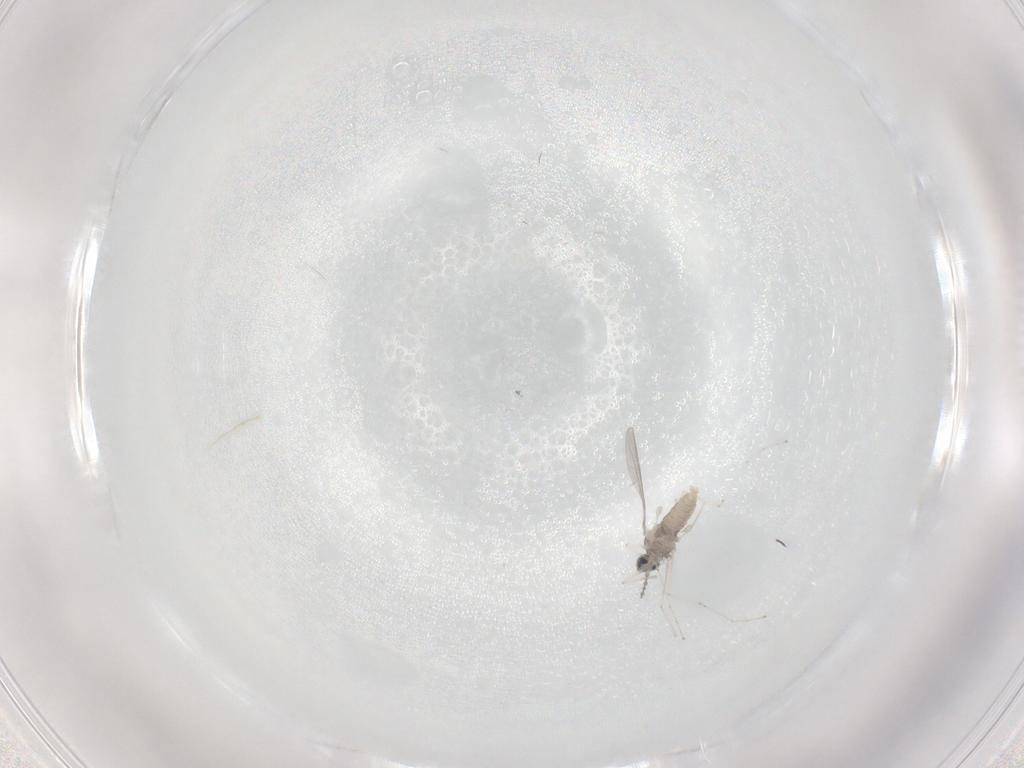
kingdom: Animalia
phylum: Arthropoda
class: Insecta
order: Diptera
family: Cecidomyiidae
